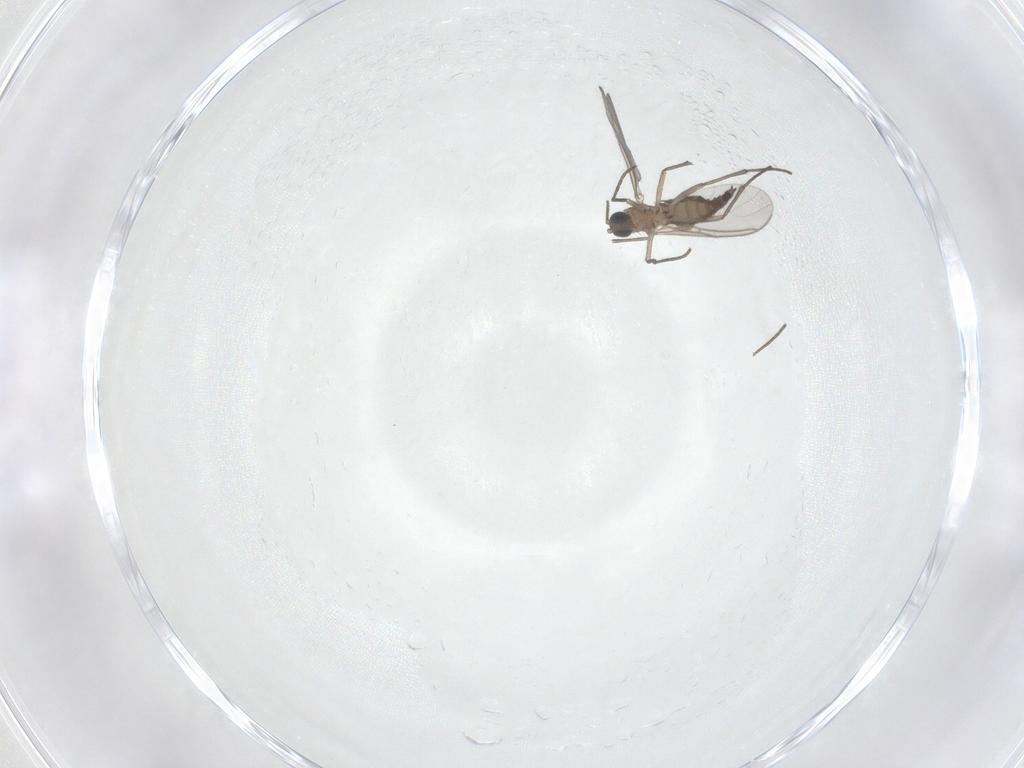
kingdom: Animalia
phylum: Arthropoda
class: Insecta
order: Diptera
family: Sciaridae
